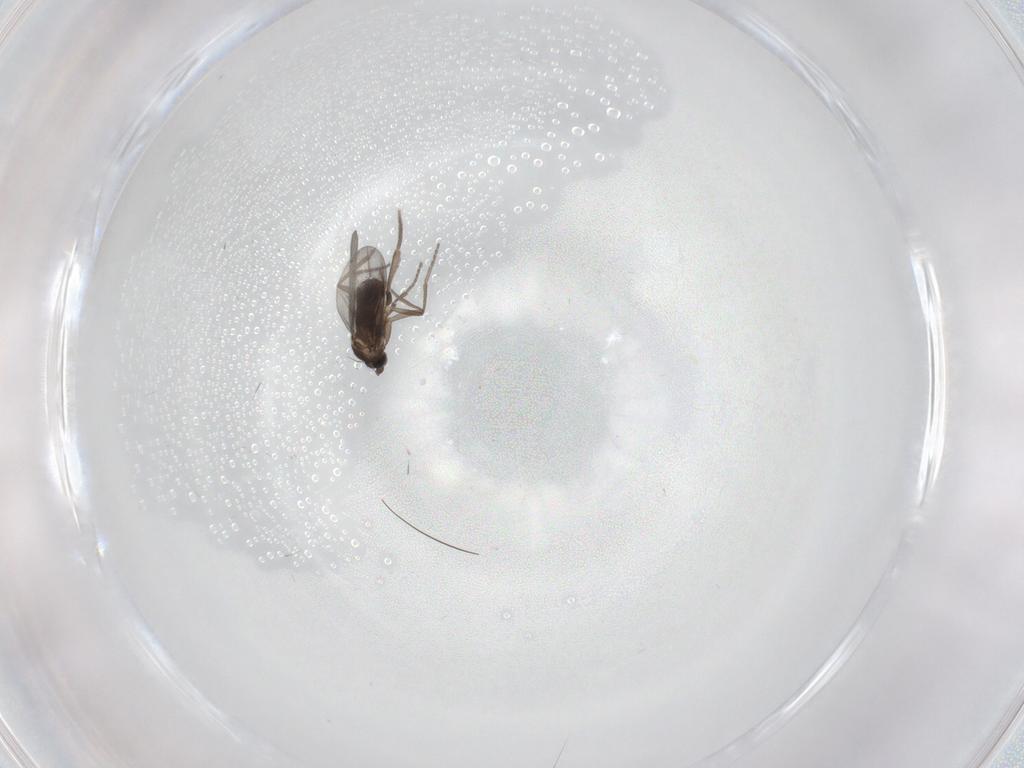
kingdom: Animalia
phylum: Arthropoda
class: Insecta
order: Diptera
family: Phoridae
